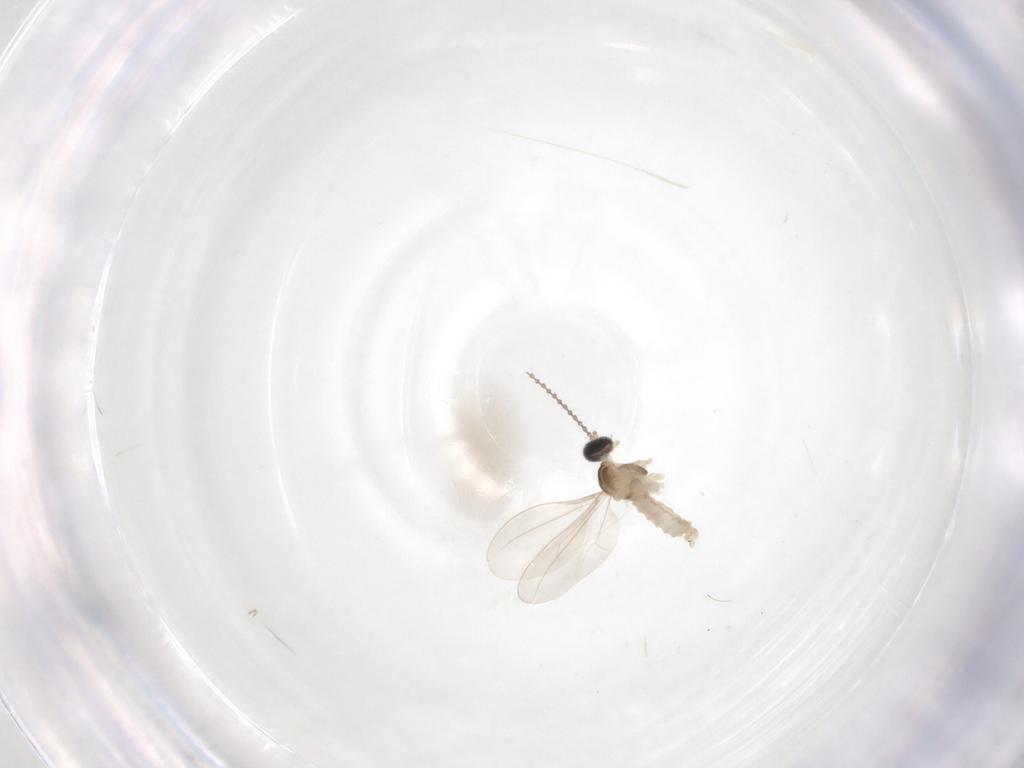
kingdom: Animalia
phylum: Arthropoda
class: Insecta
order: Diptera
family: Cecidomyiidae
